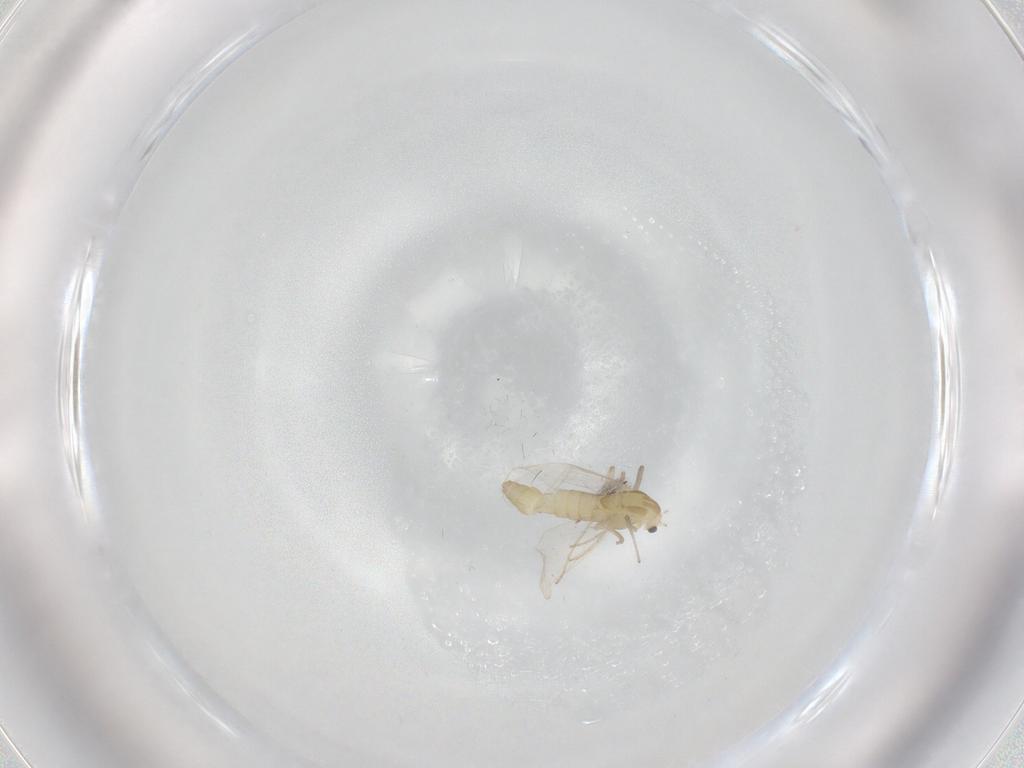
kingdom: Animalia
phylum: Arthropoda
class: Insecta
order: Diptera
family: Chironomidae
